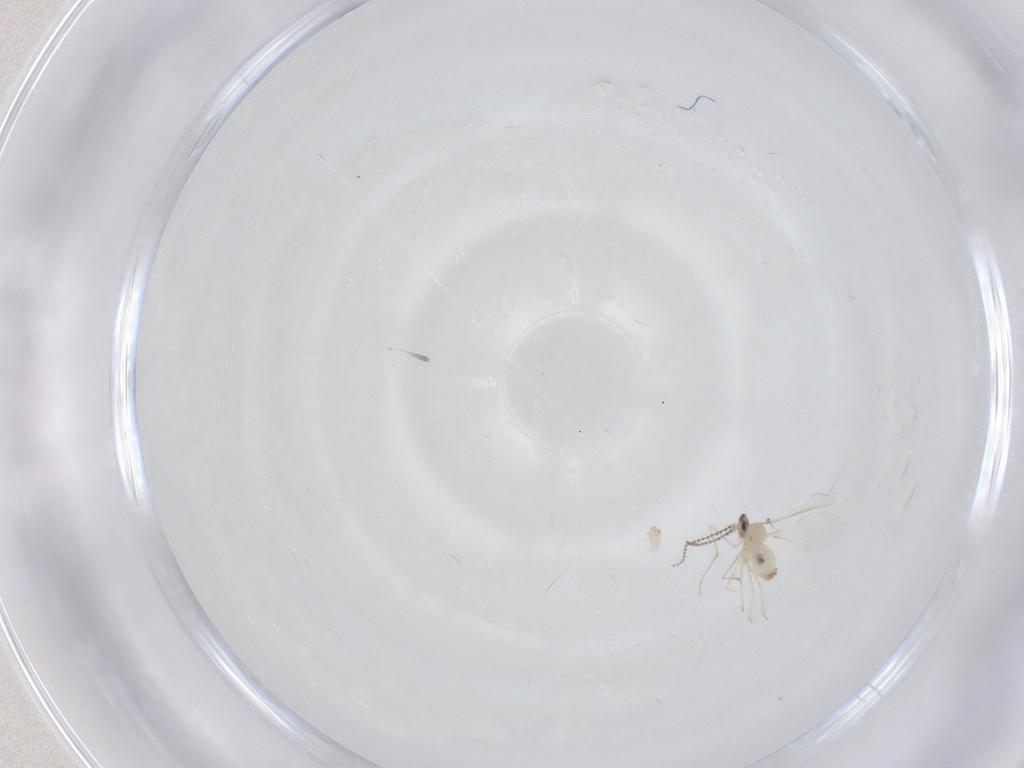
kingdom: Animalia
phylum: Arthropoda
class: Insecta
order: Diptera
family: Cecidomyiidae
